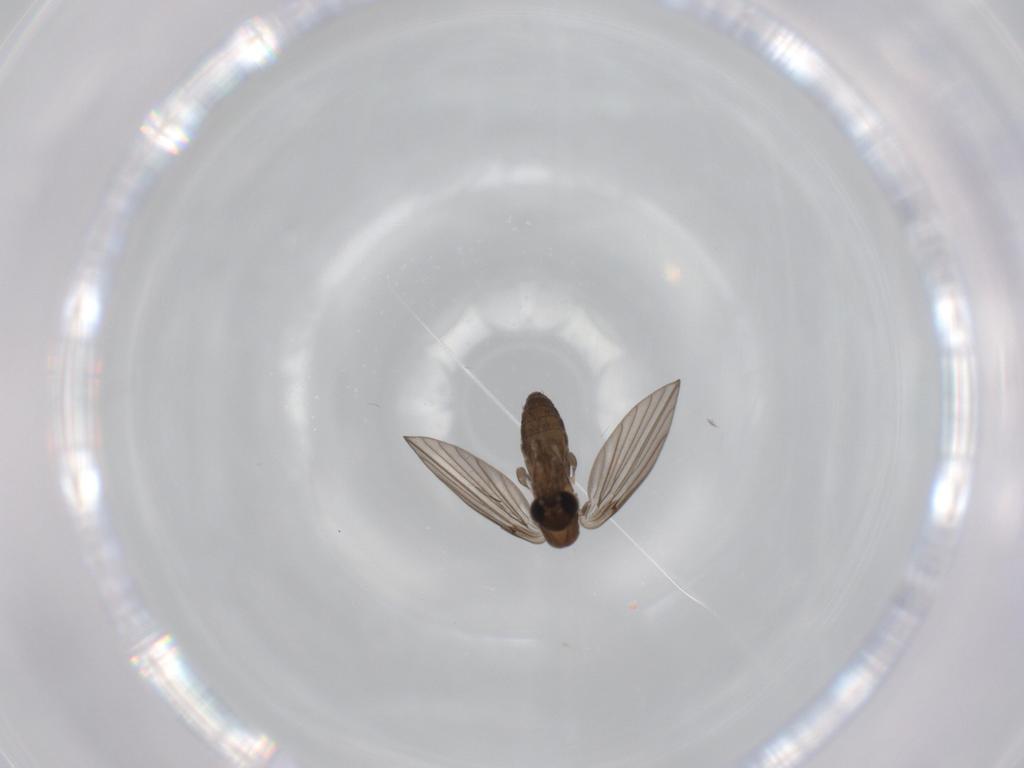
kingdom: Animalia
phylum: Arthropoda
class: Insecta
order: Diptera
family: Psychodidae
